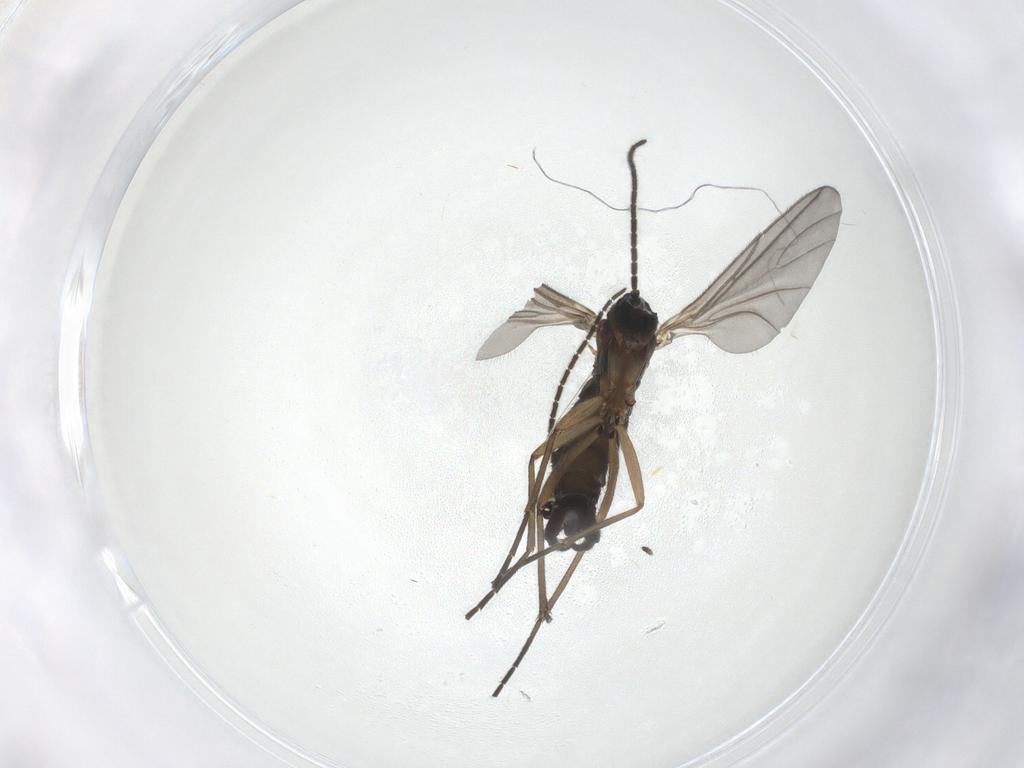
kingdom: Animalia
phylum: Arthropoda
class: Insecta
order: Diptera
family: Sciaridae
